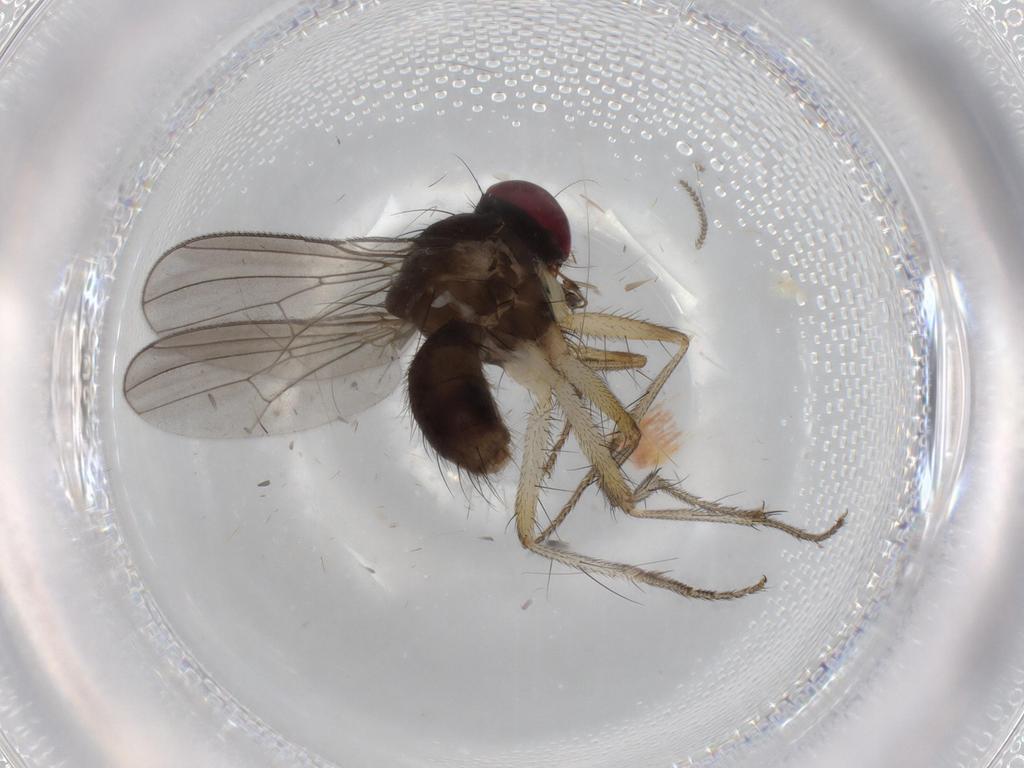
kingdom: Animalia
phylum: Arthropoda
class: Insecta
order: Diptera
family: Anthomyiidae
